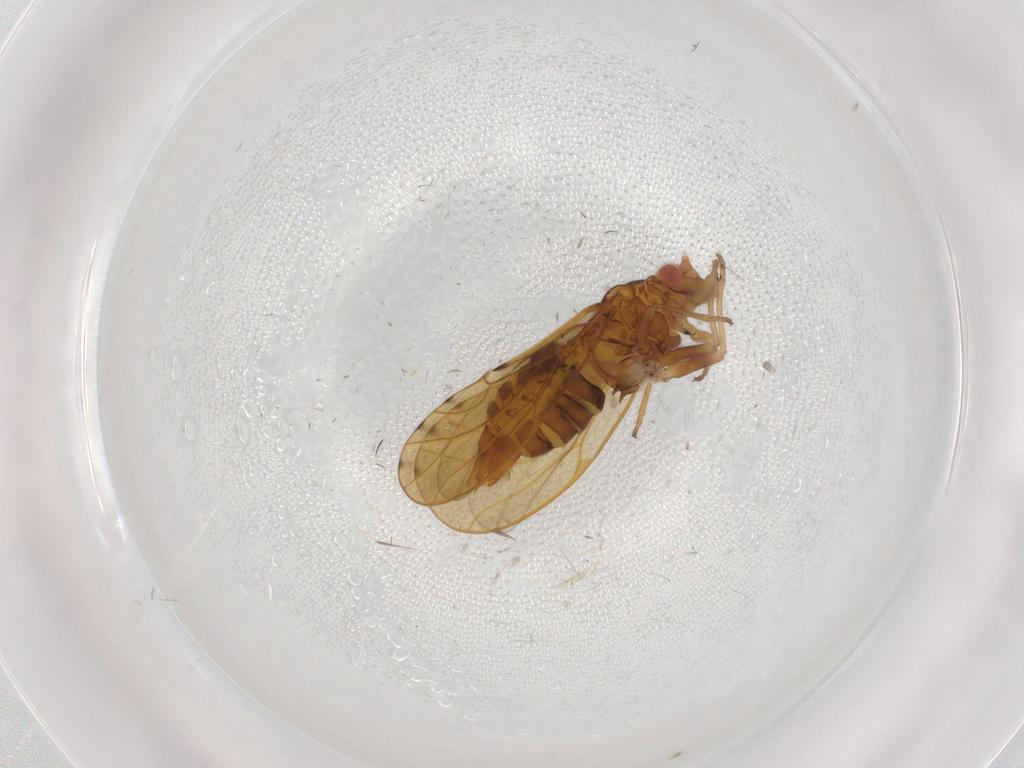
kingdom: Animalia
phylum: Arthropoda
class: Insecta
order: Hemiptera
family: Psylloidea_incertae_sedis
